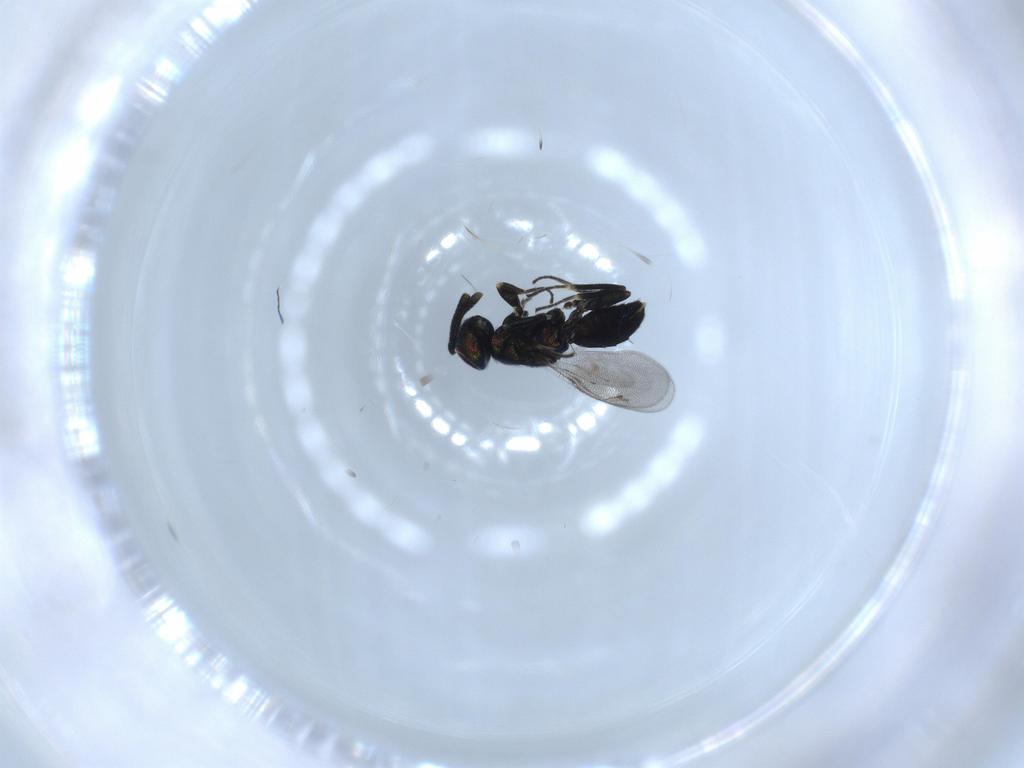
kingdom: Animalia
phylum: Arthropoda
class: Insecta
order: Hymenoptera
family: Eupelmidae
